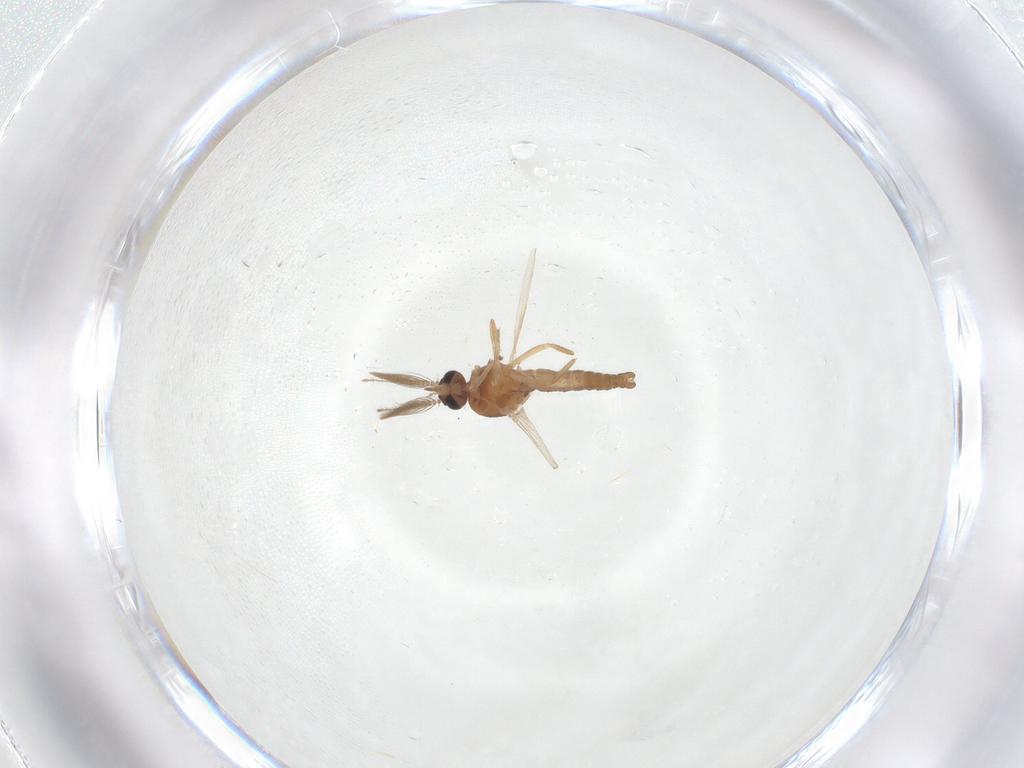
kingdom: Animalia
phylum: Arthropoda
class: Insecta
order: Diptera
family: Ceratopogonidae
